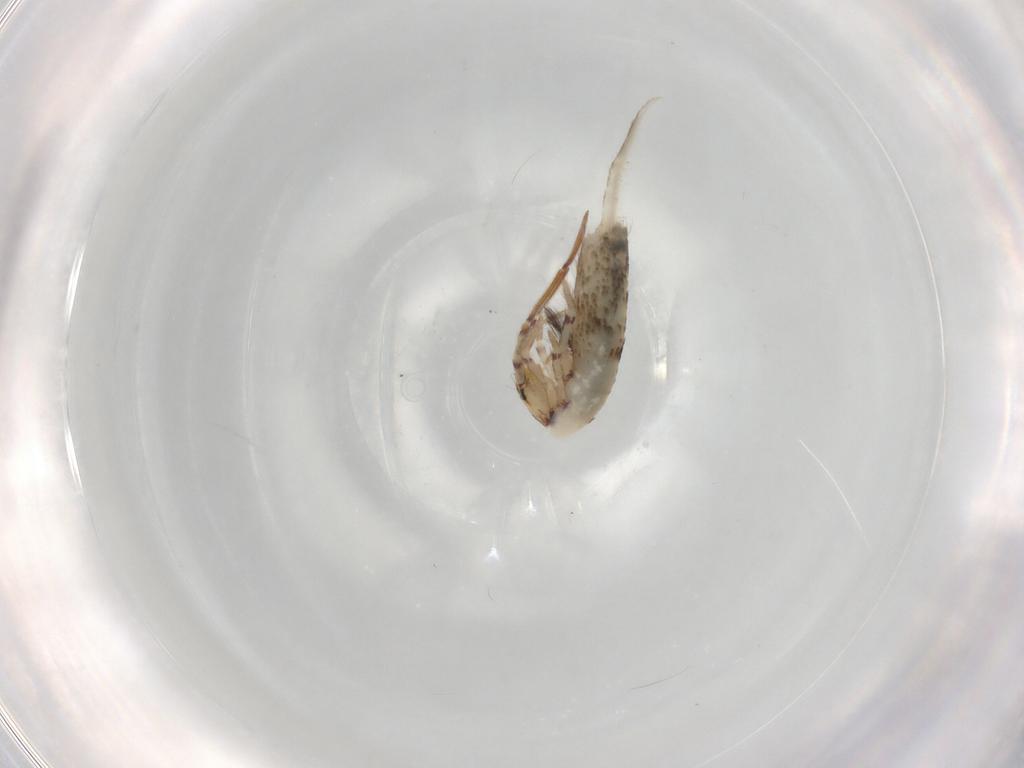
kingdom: Animalia
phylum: Arthropoda
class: Collembola
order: Entomobryomorpha
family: Entomobryidae
